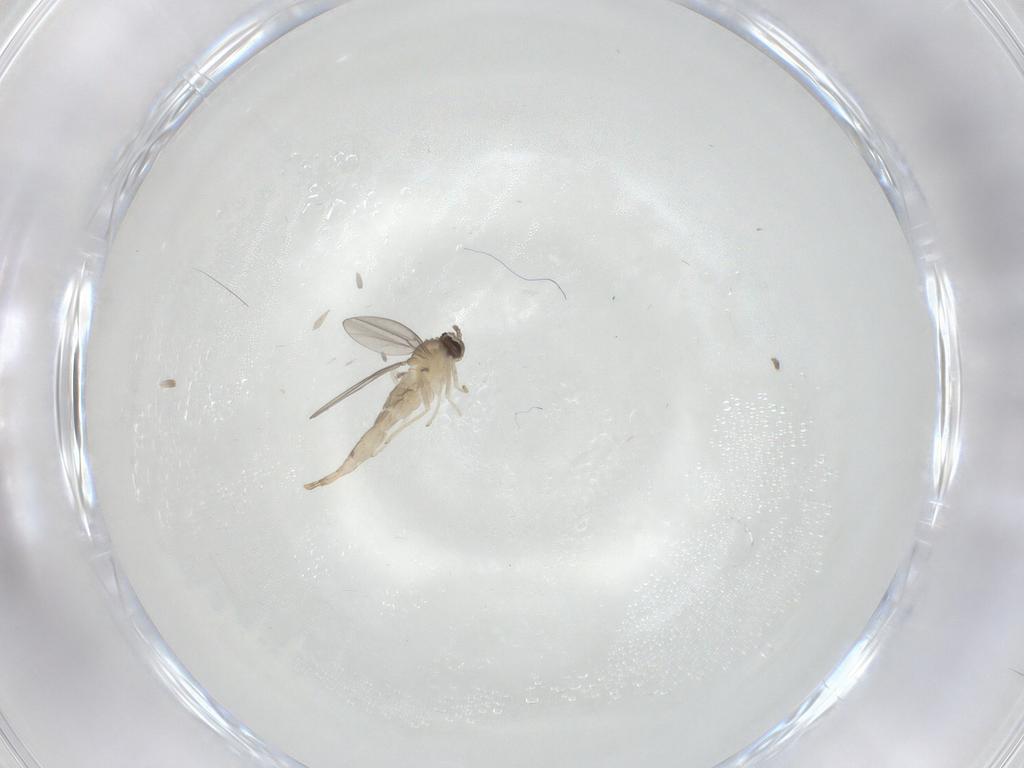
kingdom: Animalia
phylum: Arthropoda
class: Insecta
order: Diptera
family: Cecidomyiidae
